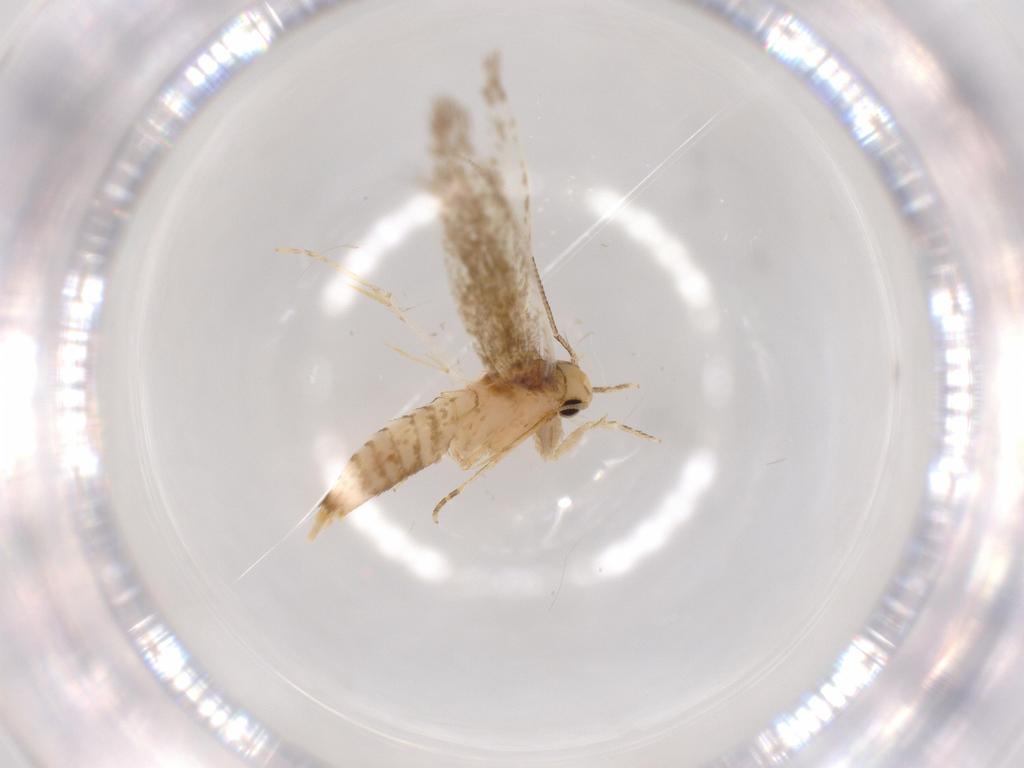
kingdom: Animalia
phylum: Arthropoda
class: Insecta
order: Lepidoptera
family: Tineidae
